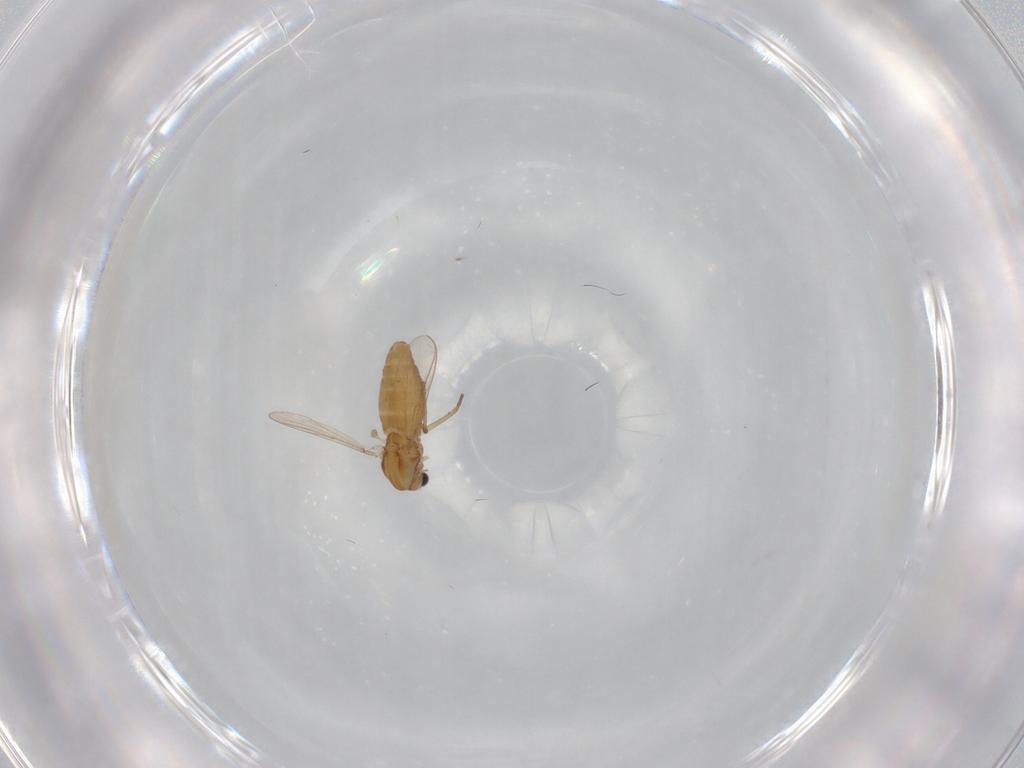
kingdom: Animalia
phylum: Arthropoda
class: Insecta
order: Diptera
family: Chironomidae
